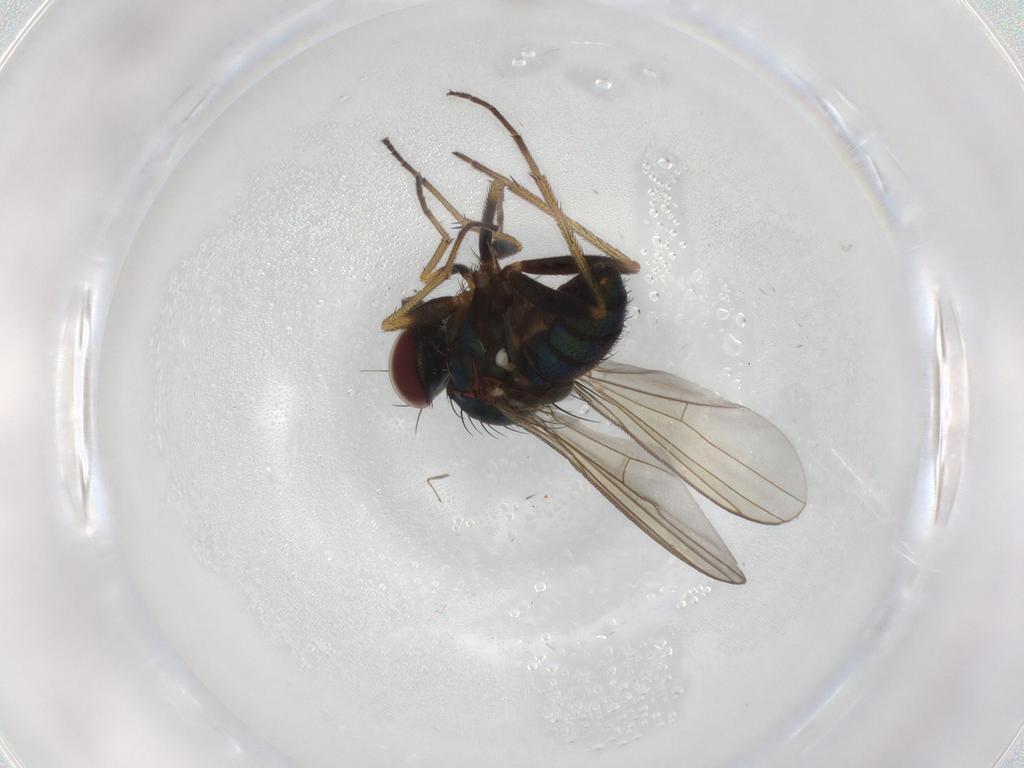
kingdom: Animalia
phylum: Arthropoda
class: Insecta
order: Diptera
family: Dolichopodidae
